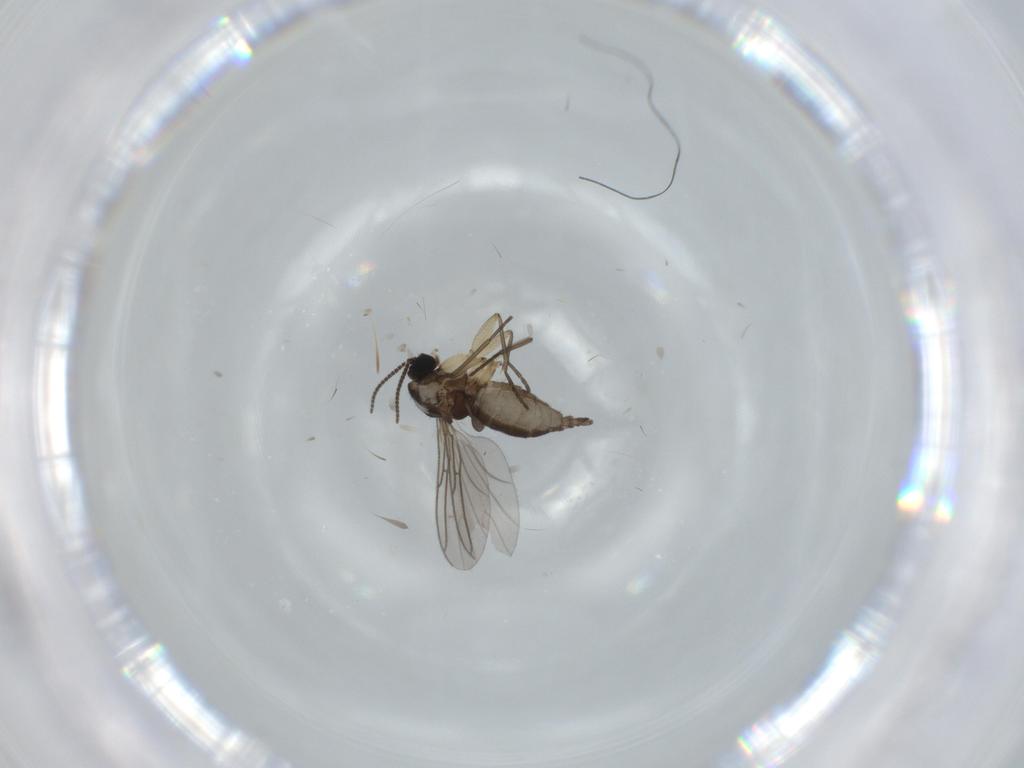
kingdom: Animalia
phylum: Arthropoda
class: Insecta
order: Diptera
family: Sciaridae
